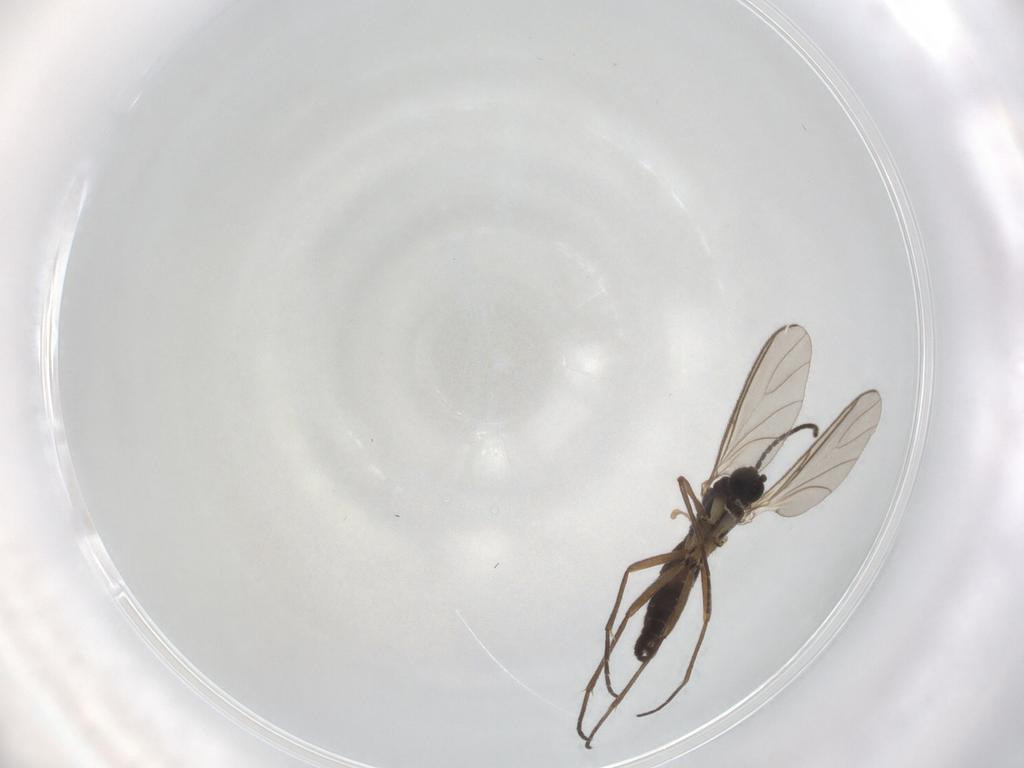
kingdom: Animalia
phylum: Arthropoda
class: Insecta
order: Diptera
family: Sciaridae
